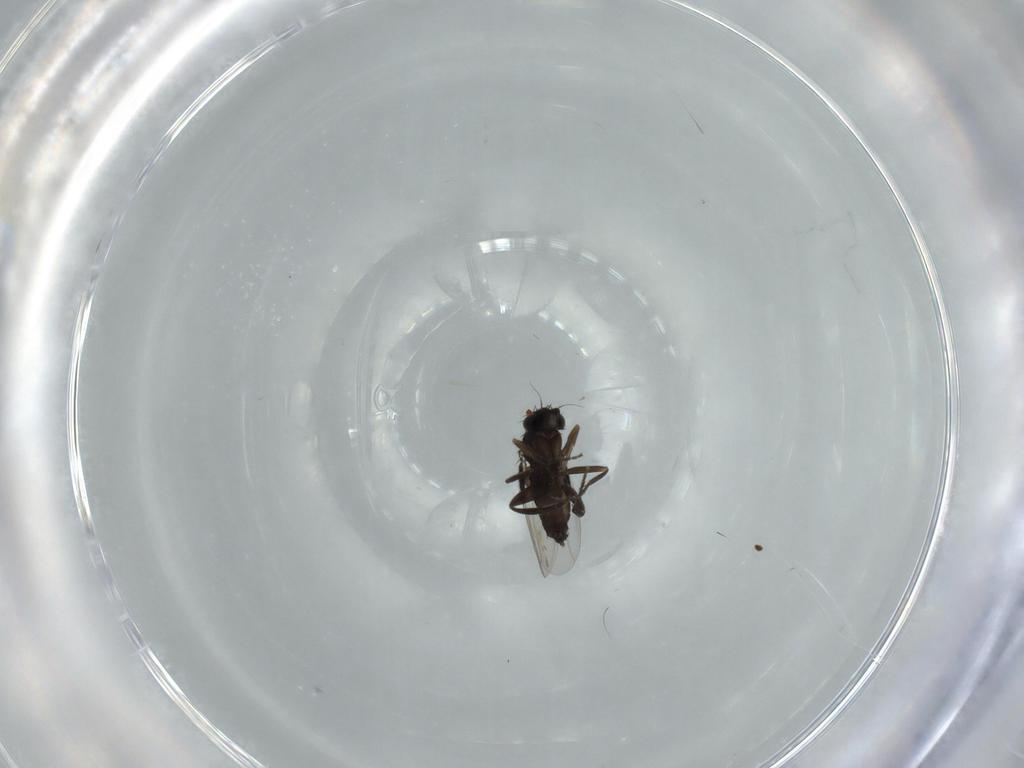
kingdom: Animalia
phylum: Arthropoda
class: Insecta
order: Diptera
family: Phoridae
